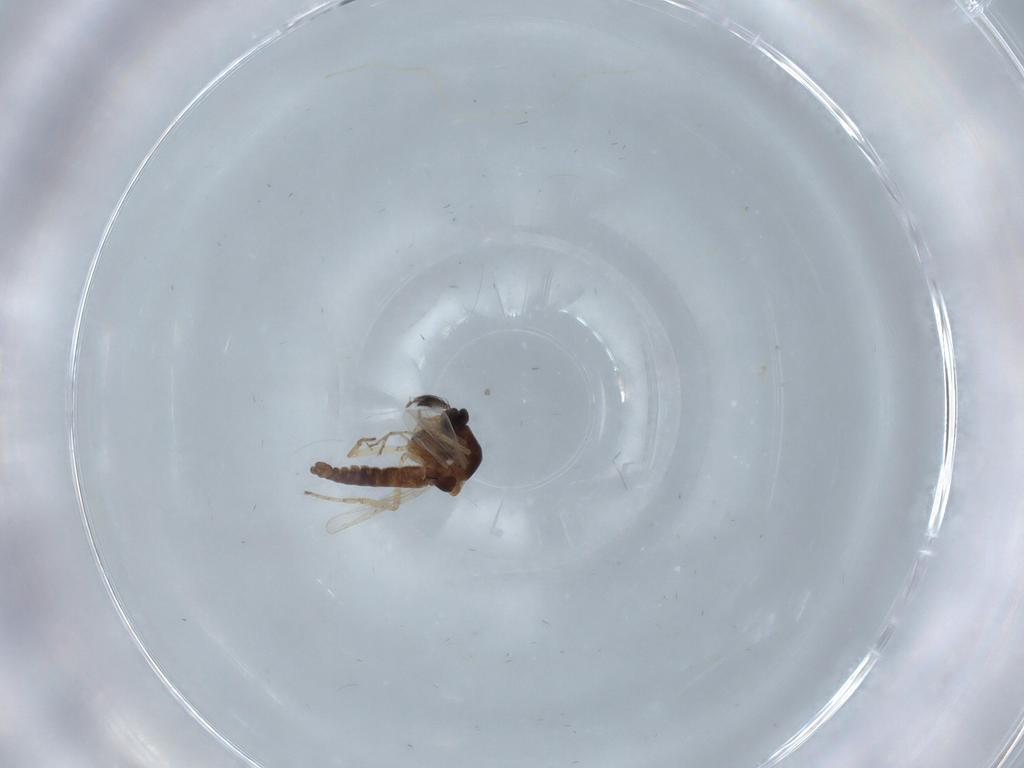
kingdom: Animalia
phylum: Arthropoda
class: Insecta
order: Diptera
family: Ceratopogonidae
